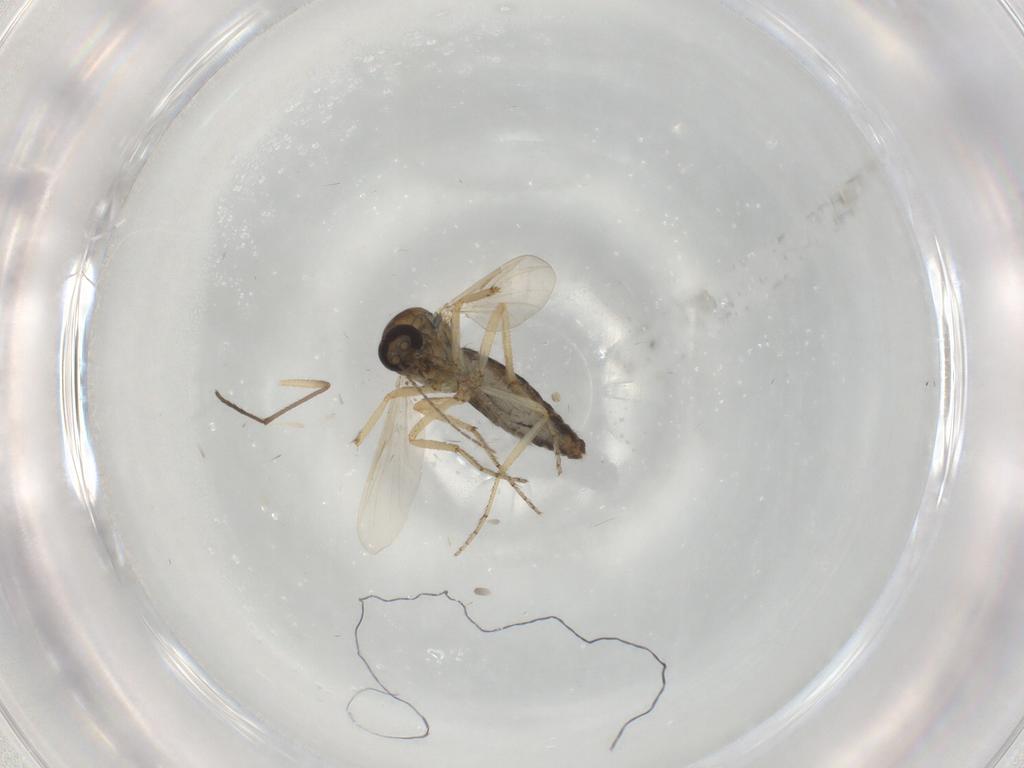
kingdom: Animalia
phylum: Arthropoda
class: Insecta
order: Diptera
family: Ceratopogonidae
